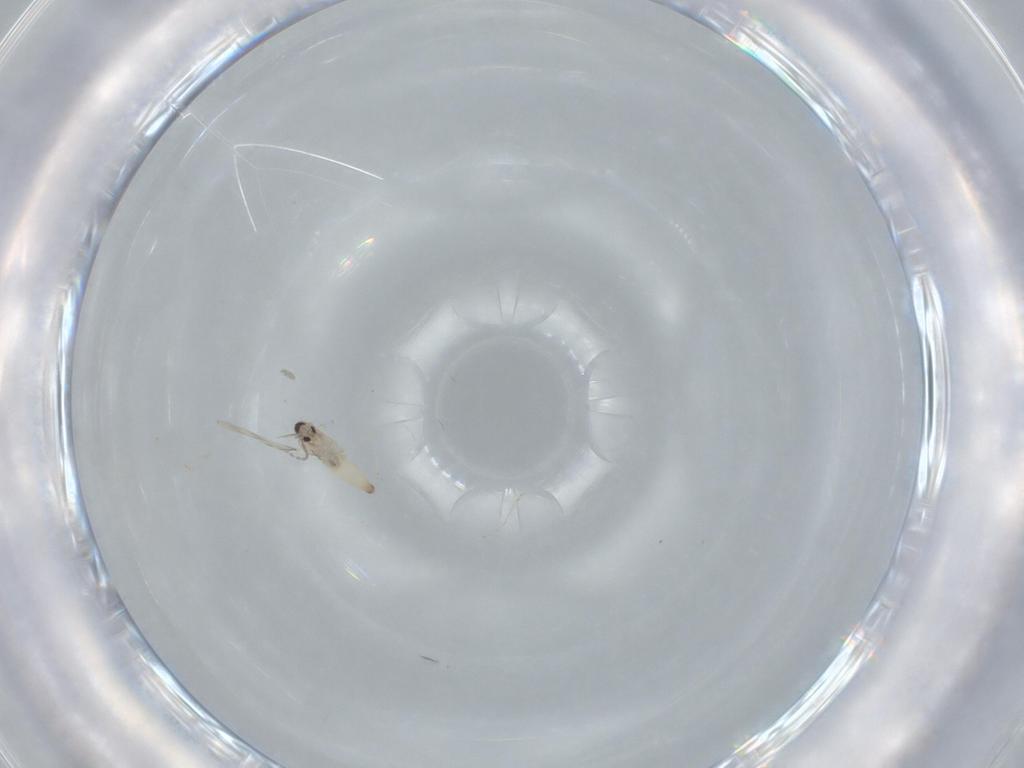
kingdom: Animalia
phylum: Arthropoda
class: Insecta
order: Diptera
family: Cecidomyiidae
